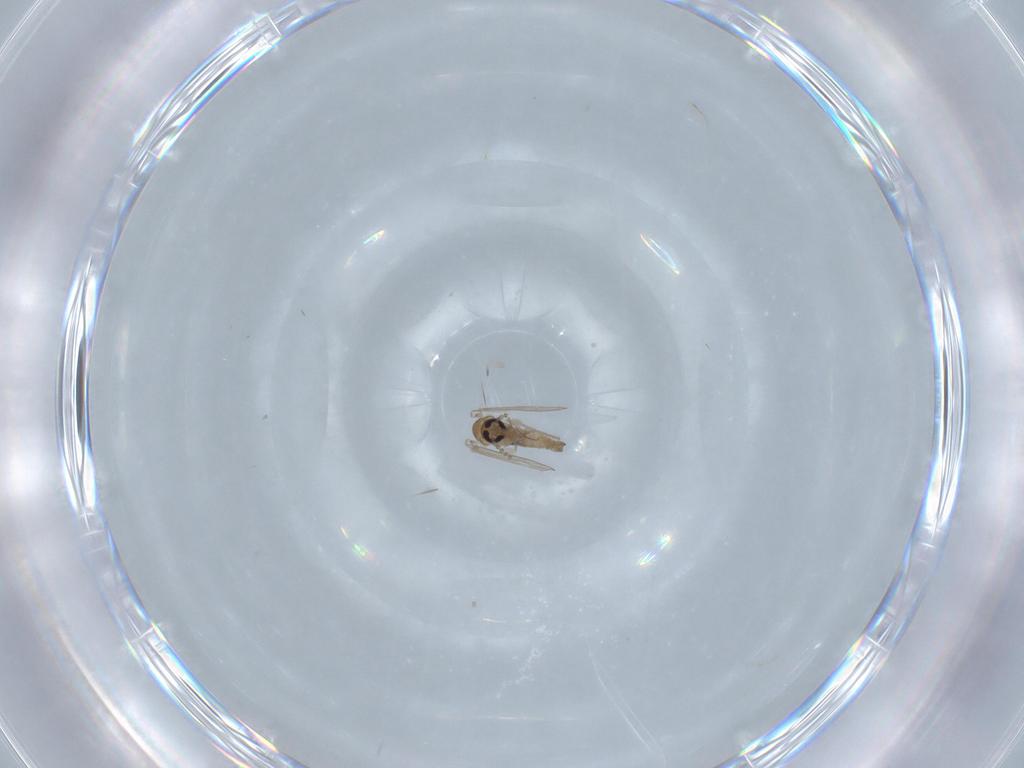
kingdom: Animalia
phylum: Arthropoda
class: Insecta
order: Diptera
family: Psychodidae
